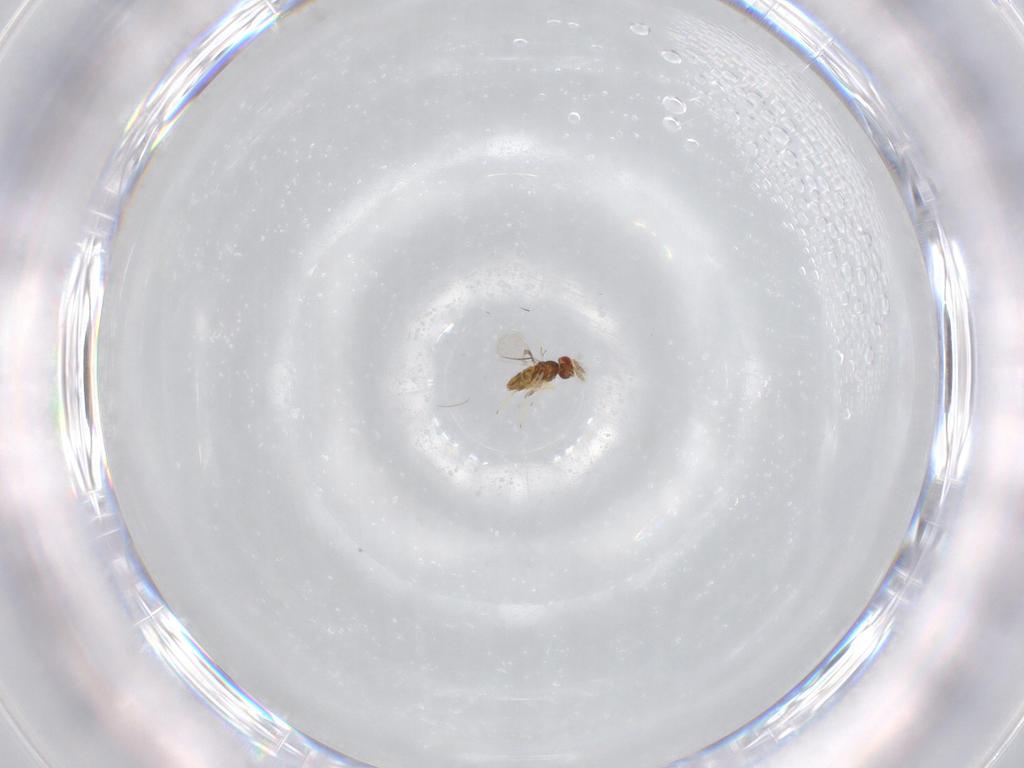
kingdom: Animalia
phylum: Arthropoda
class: Insecta
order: Hymenoptera
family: Trichogrammatidae
